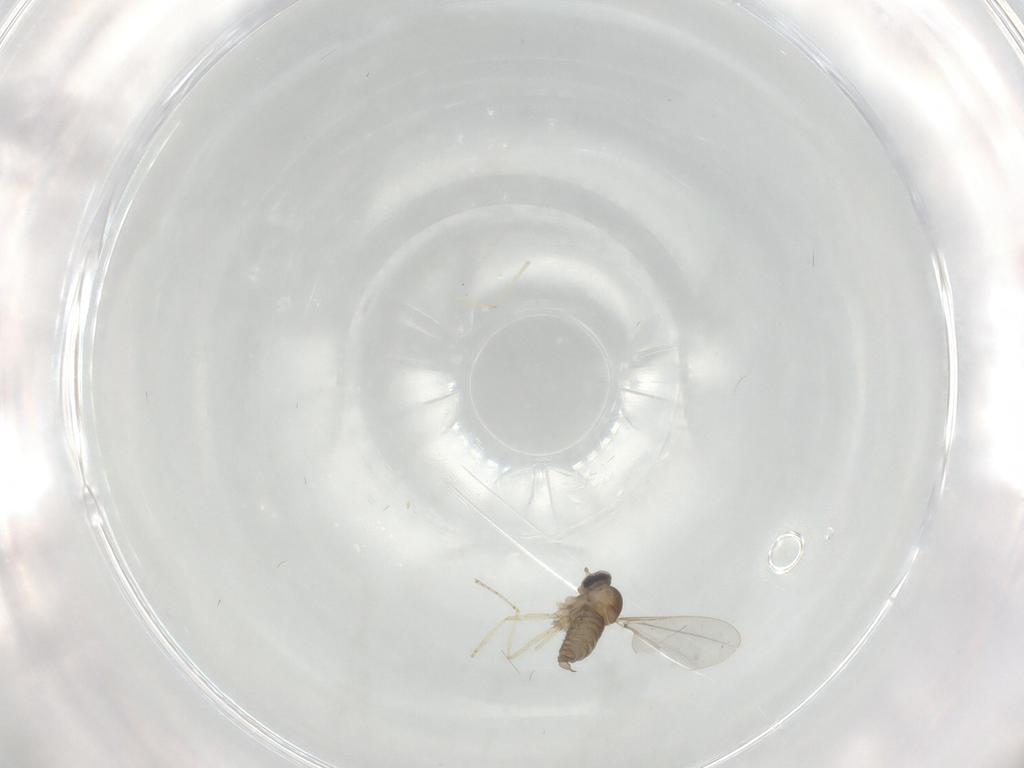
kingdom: Animalia
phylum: Arthropoda
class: Insecta
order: Diptera
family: Cecidomyiidae
